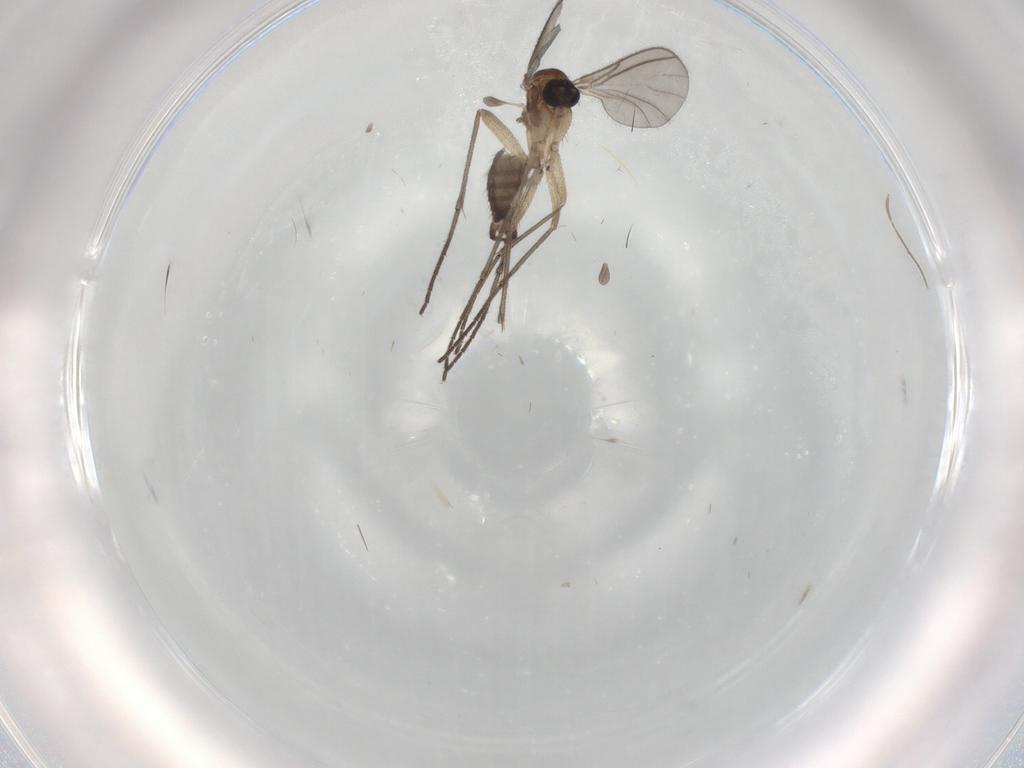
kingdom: Animalia
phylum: Arthropoda
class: Insecta
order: Diptera
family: Sciaridae
